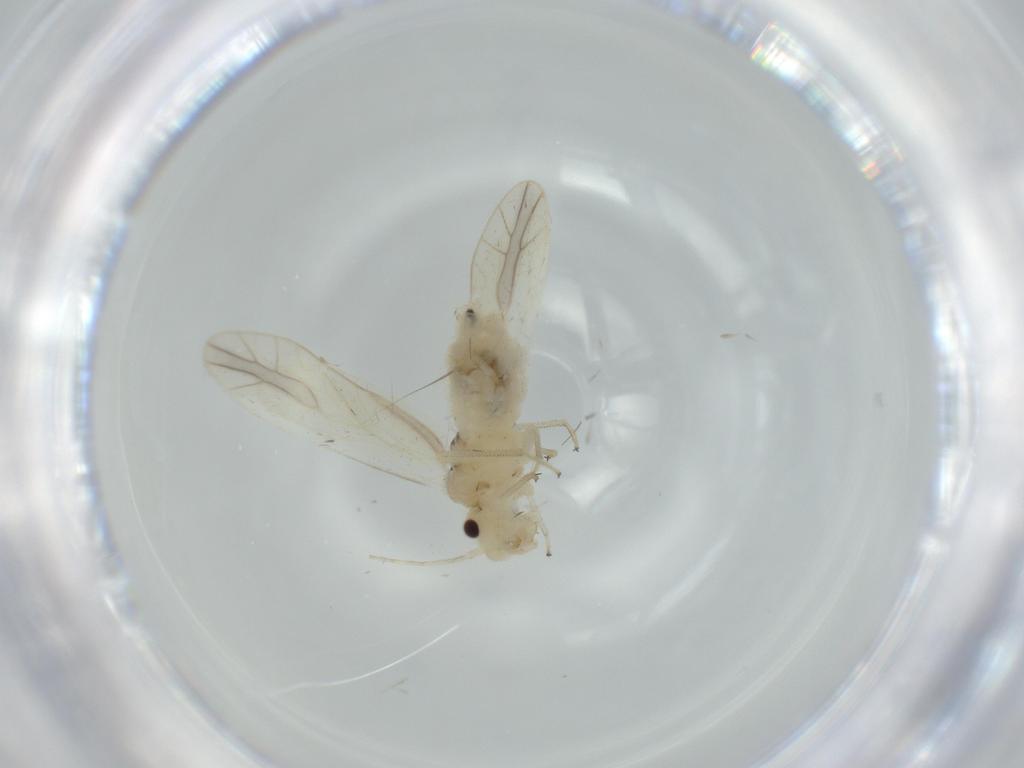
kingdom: Animalia
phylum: Arthropoda
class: Insecta
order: Psocodea
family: Caeciliusidae
